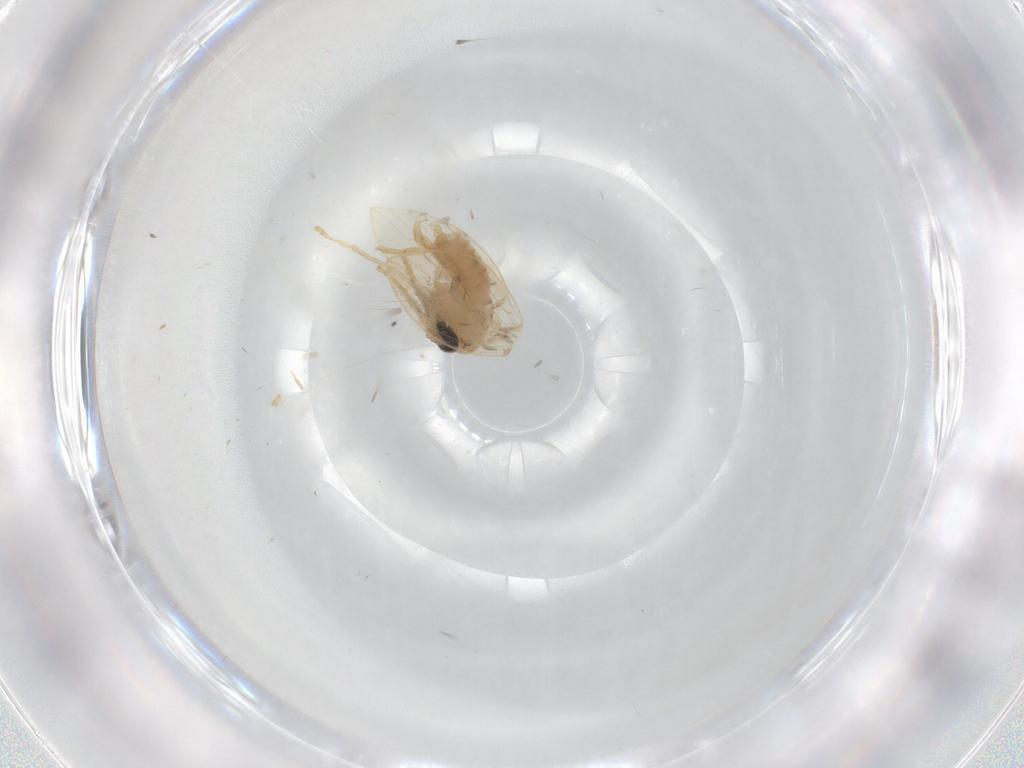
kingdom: Animalia
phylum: Arthropoda
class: Insecta
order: Diptera
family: Psychodidae
